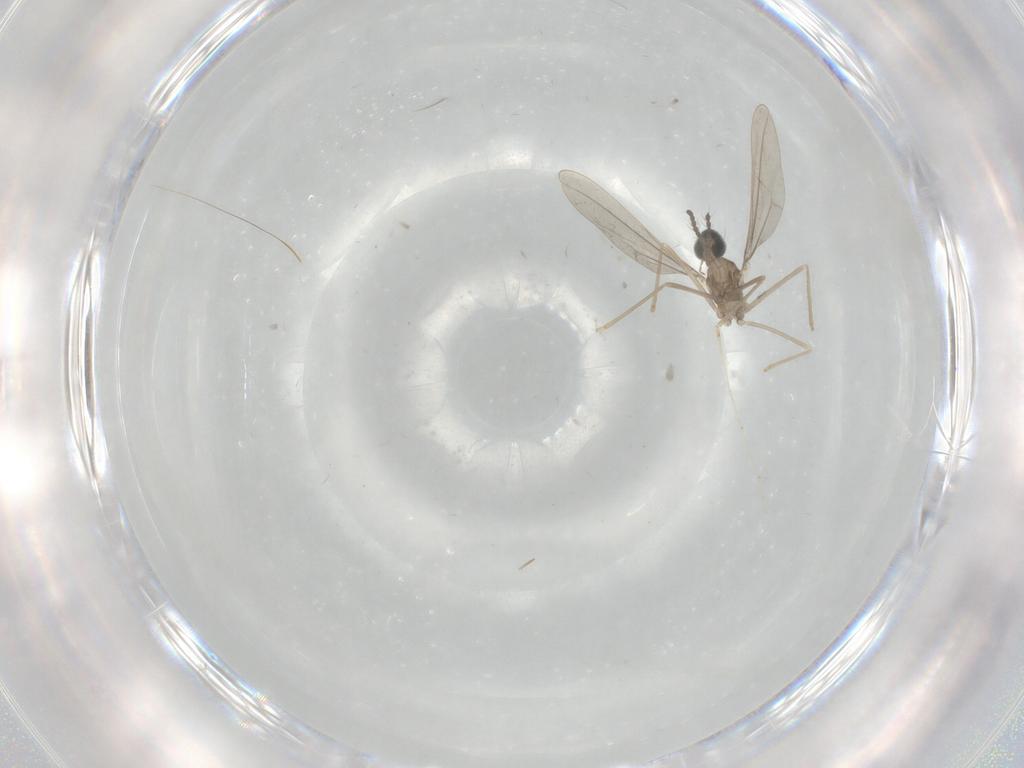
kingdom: Animalia
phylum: Arthropoda
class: Insecta
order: Diptera
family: Cecidomyiidae
